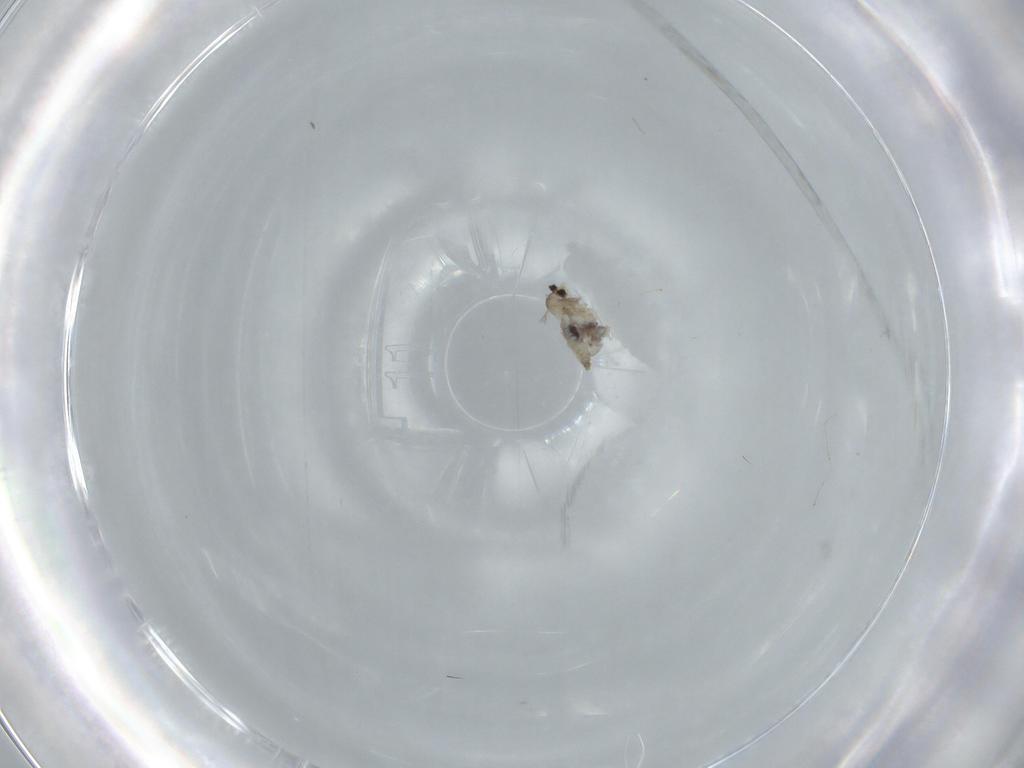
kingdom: Animalia
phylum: Arthropoda
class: Insecta
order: Diptera
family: Cecidomyiidae
